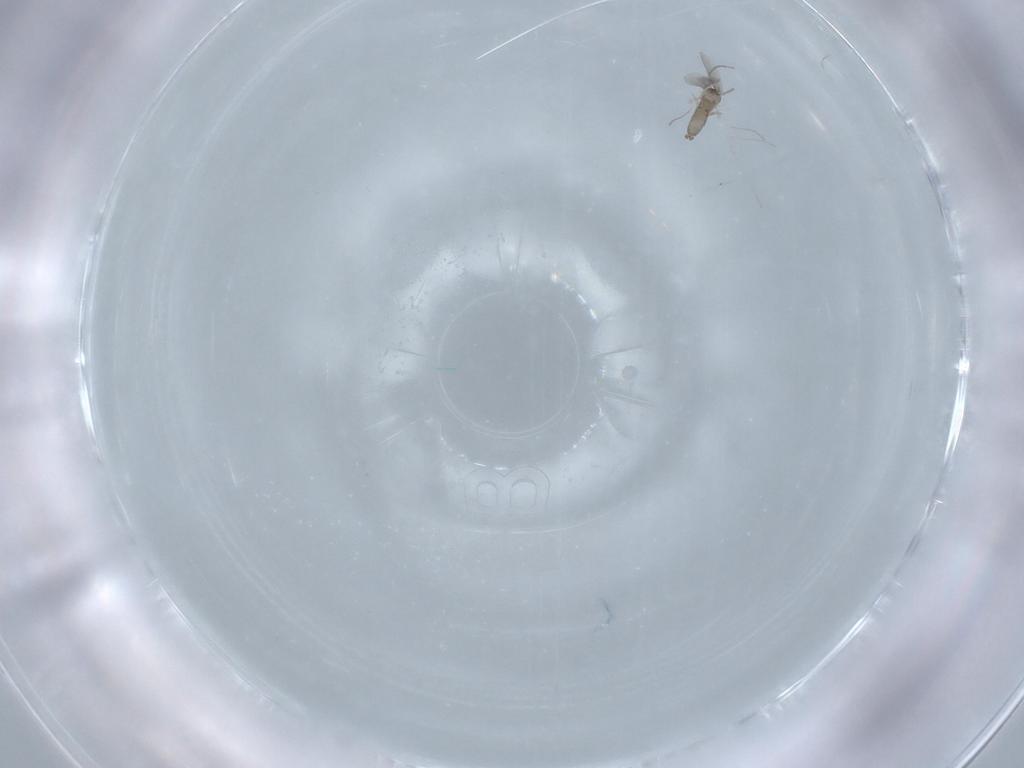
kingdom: Animalia
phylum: Arthropoda
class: Insecta
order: Diptera
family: Cecidomyiidae
